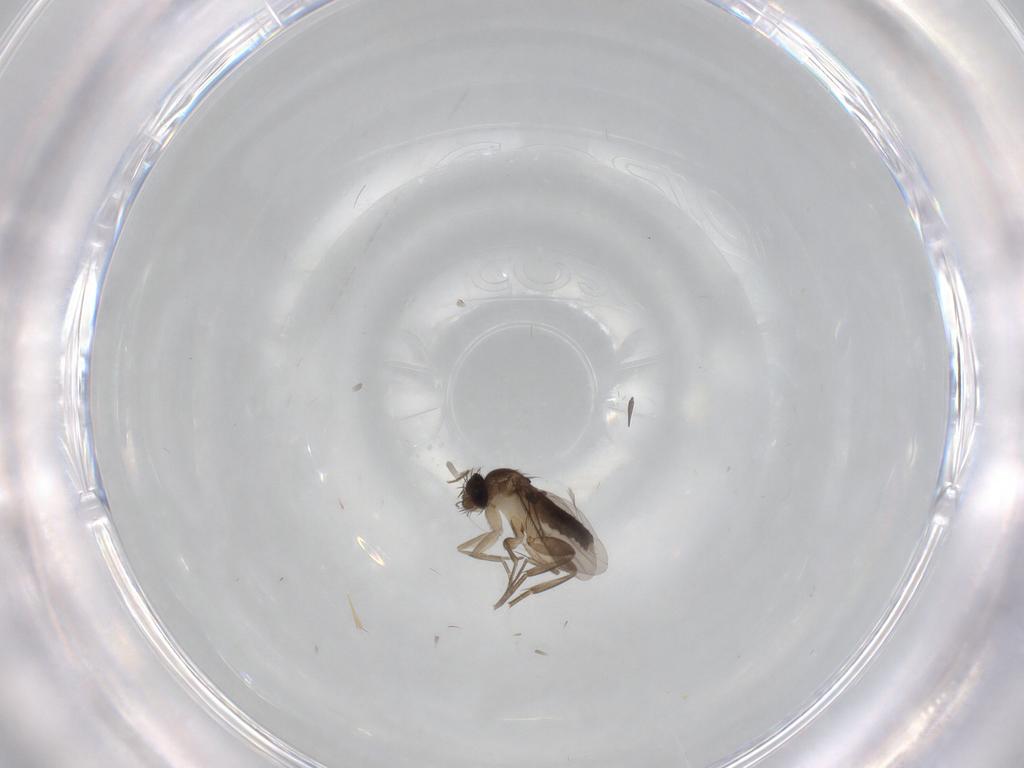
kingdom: Animalia
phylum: Arthropoda
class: Insecta
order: Diptera
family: Phoridae
